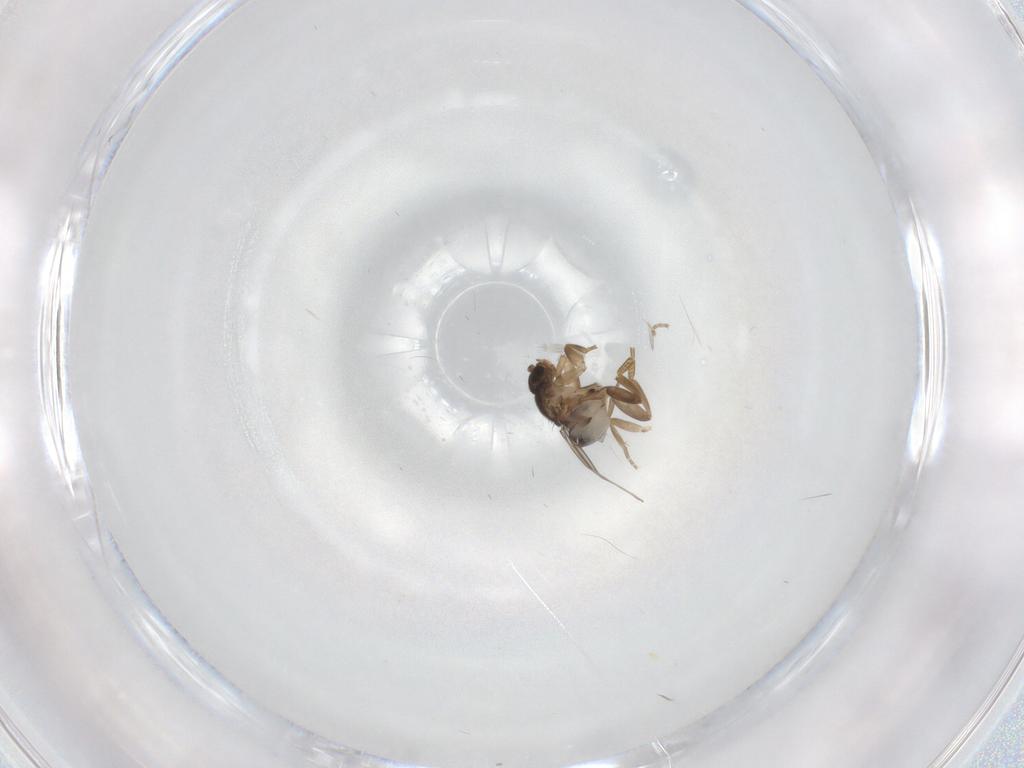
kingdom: Animalia
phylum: Arthropoda
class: Insecta
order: Diptera
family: Phoridae
